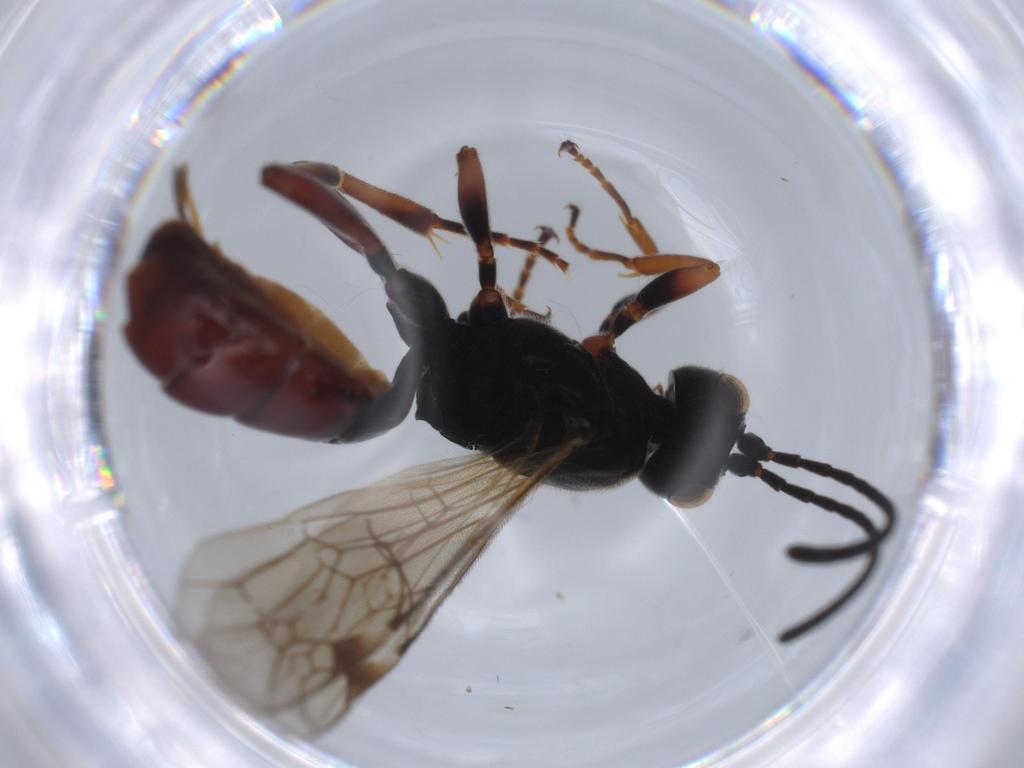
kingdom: Animalia
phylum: Arthropoda
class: Insecta
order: Hymenoptera
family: Ichneumonidae
